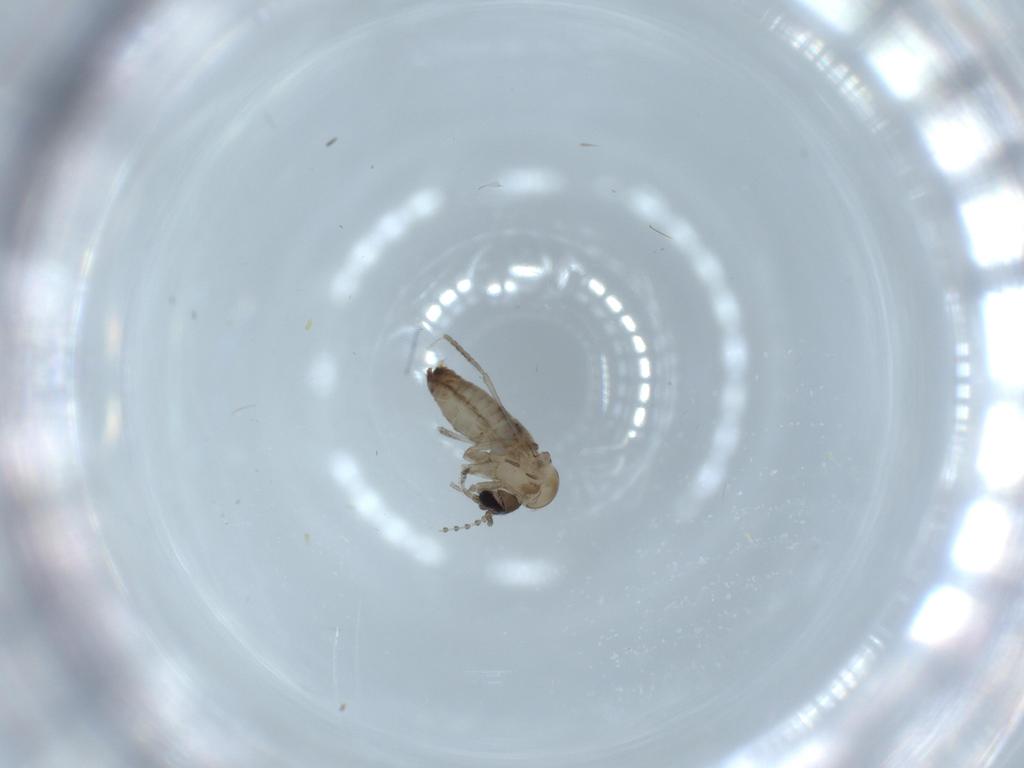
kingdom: Animalia
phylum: Arthropoda
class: Insecta
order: Diptera
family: Psychodidae
